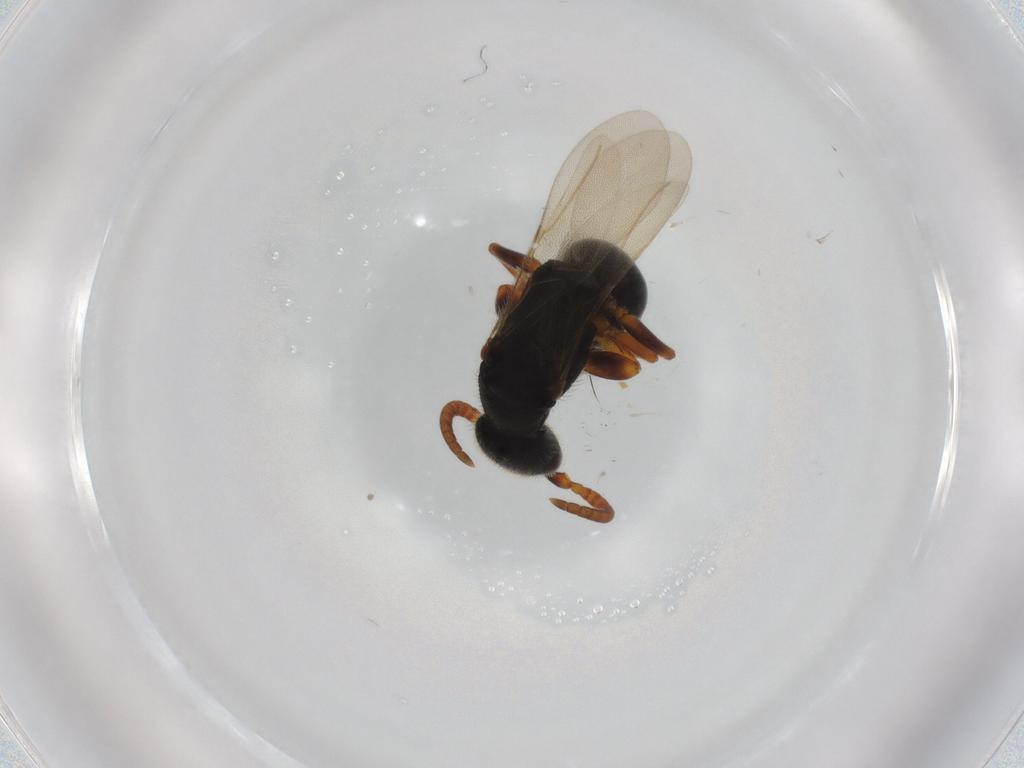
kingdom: Animalia
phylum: Arthropoda
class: Insecta
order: Hymenoptera
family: Bethylidae
